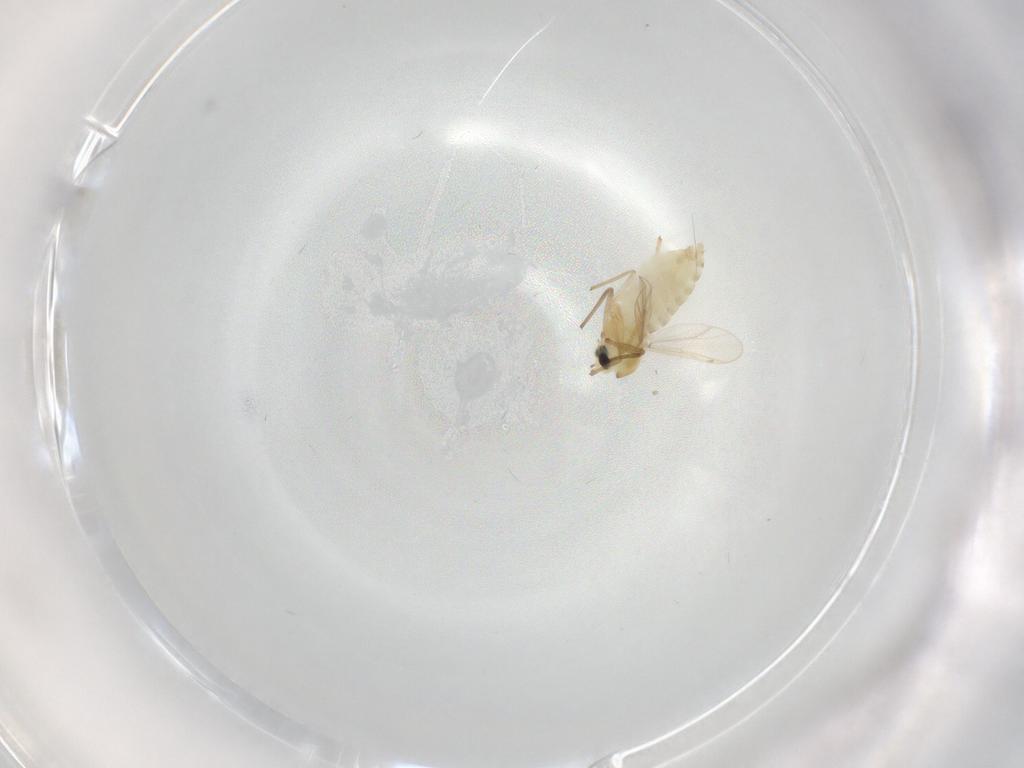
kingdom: Animalia
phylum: Arthropoda
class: Insecta
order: Diptera
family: Chironomidae
